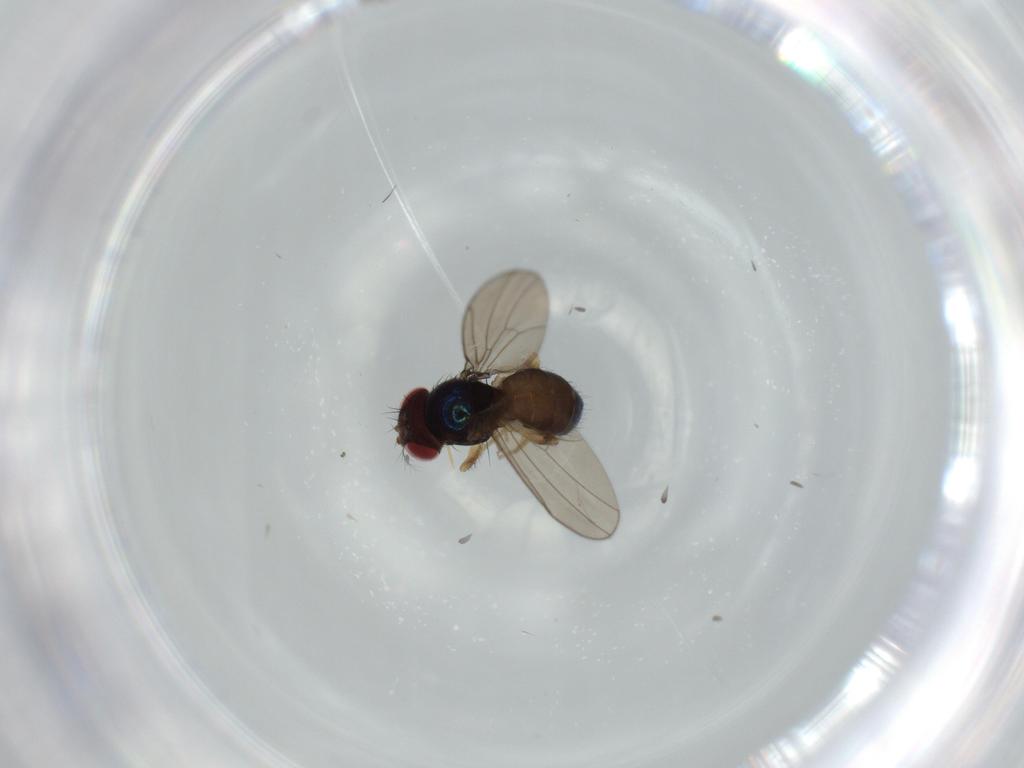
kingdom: Animalia
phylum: Arthropoda
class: Insecta
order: Diptera
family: Drosophilidae
